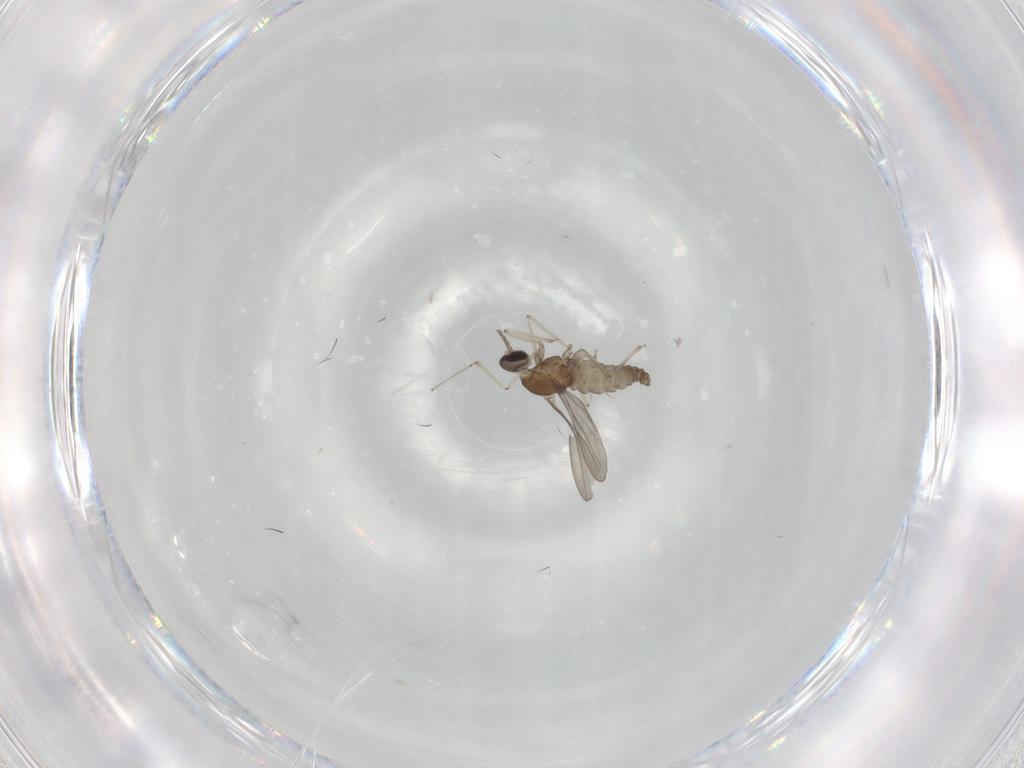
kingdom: Animalia
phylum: Arthropoda
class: Insecta
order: Diptera
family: Cecidomyiidae
